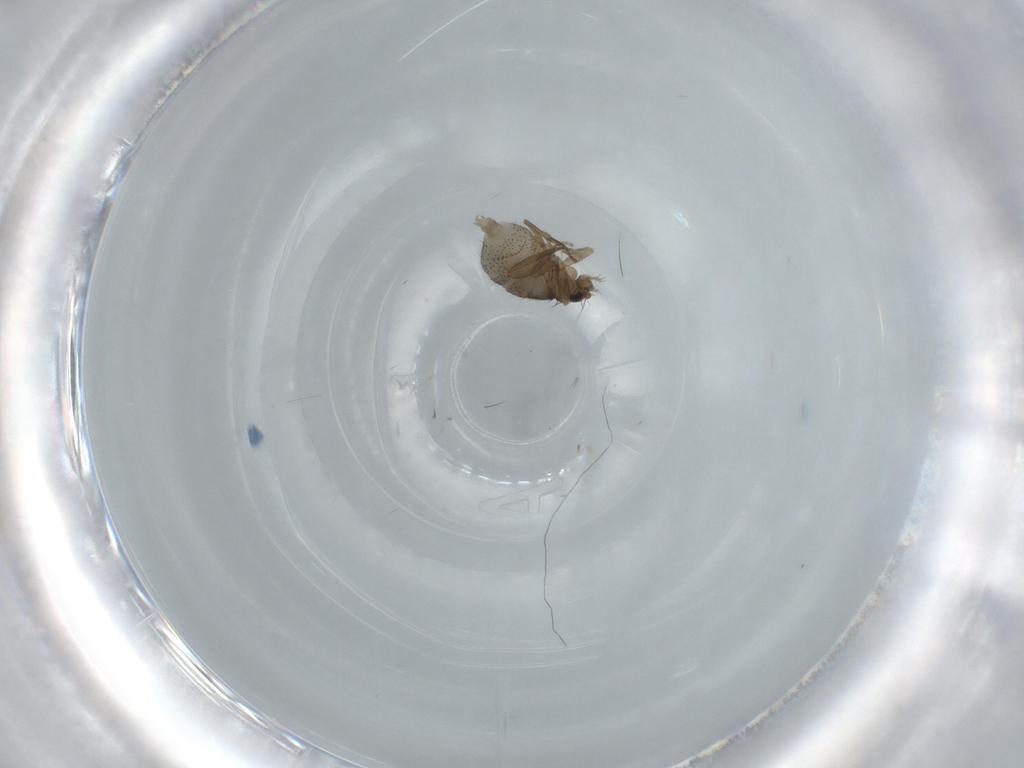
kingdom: Animalia
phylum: Arthropoda
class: Insecta
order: Diptera
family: Phoridae
